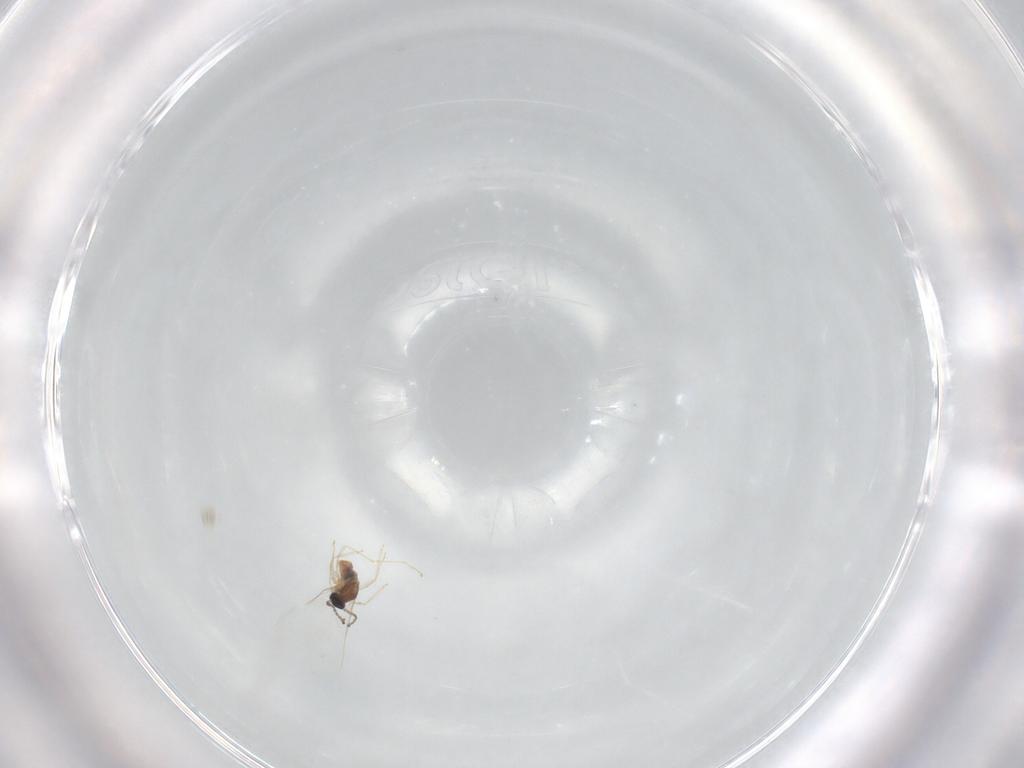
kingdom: Animalia
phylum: Arthropoda
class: Insecta
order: Diptera
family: Cecidomyiidae
